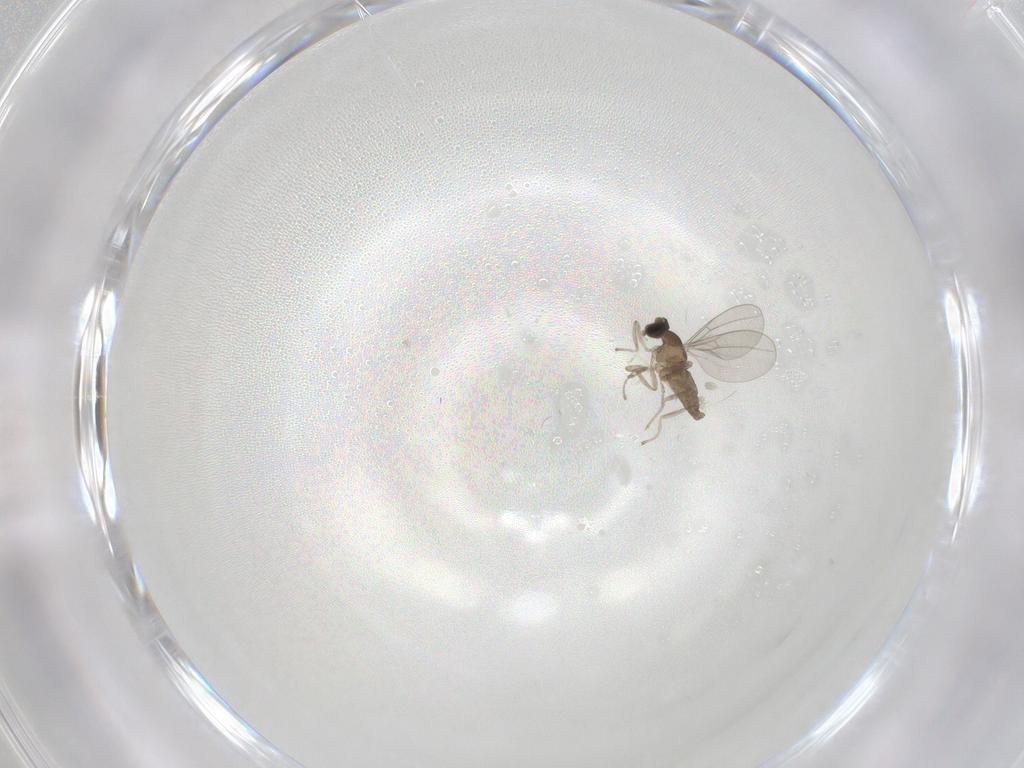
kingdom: Animalia
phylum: Arthropoda
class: Insecta
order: Diptera
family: Cecidomyiidae
